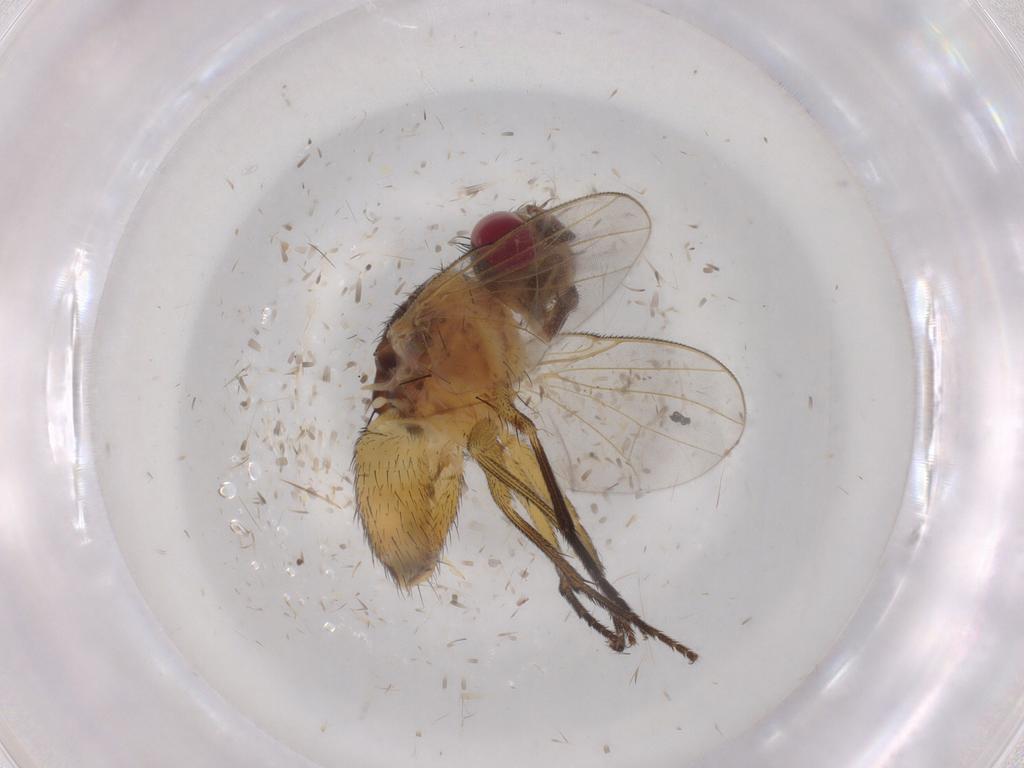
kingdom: Animalia
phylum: Arthropoda
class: Insecta
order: Diptera
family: Muscidae
